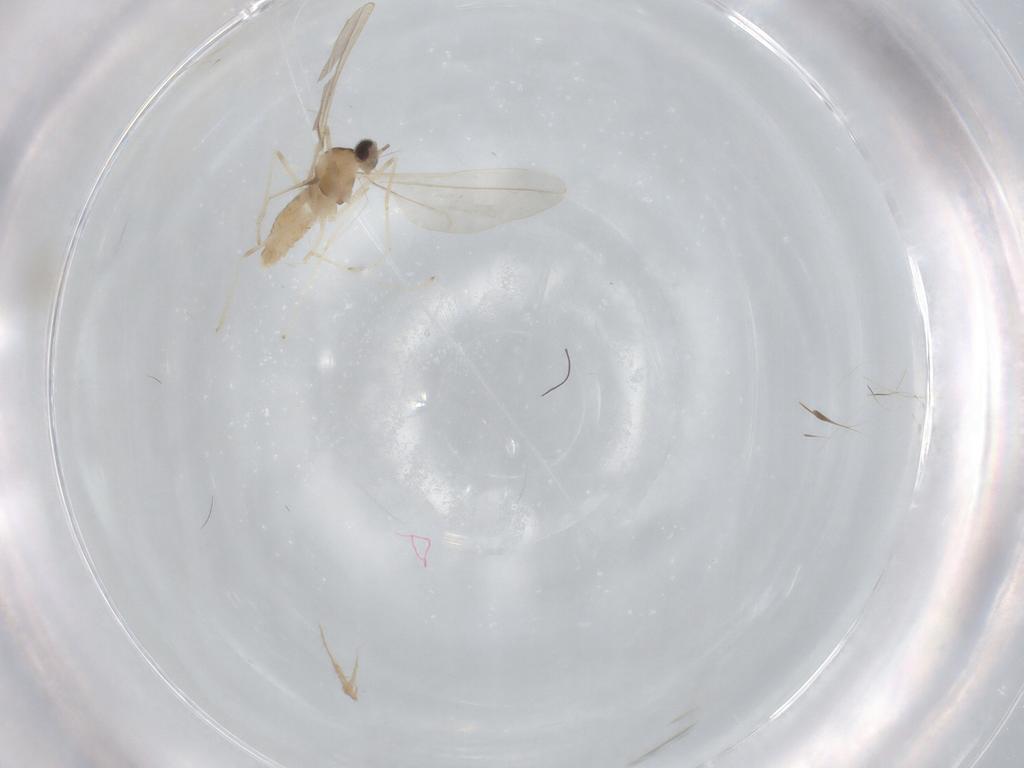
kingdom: Animalia
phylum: Arthropoda
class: Insecta
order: Diptera
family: Cecidomyiidae
